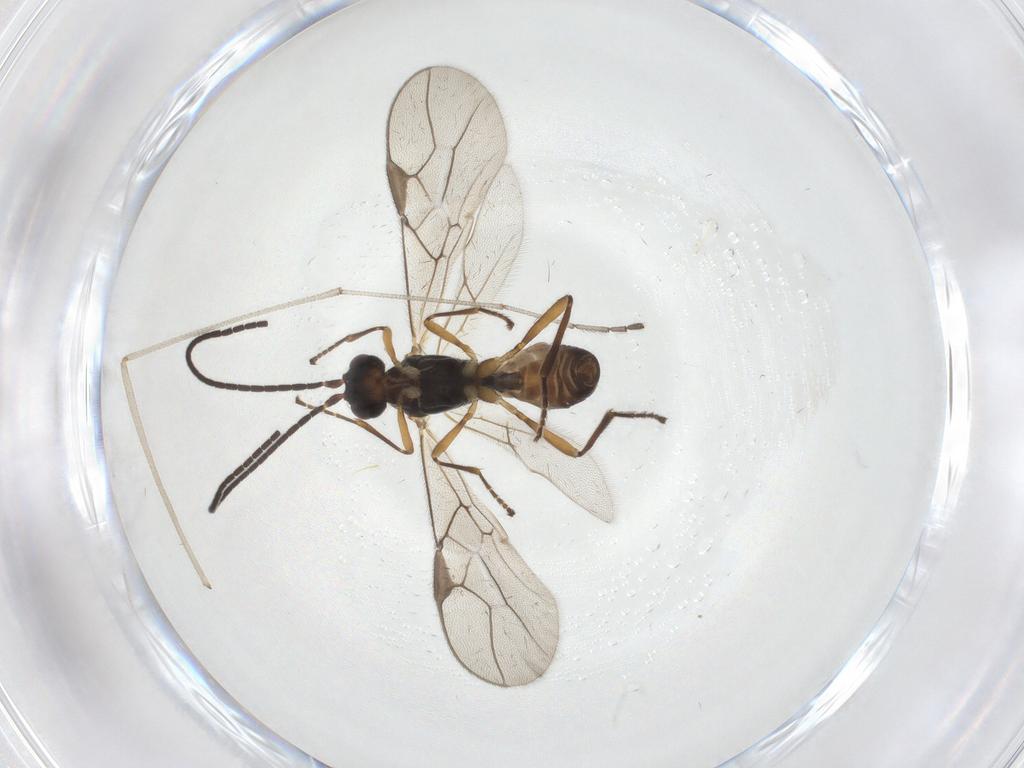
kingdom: Animalia
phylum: Arthropoda
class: Insecta
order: Hymenoptera
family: Braconidae
